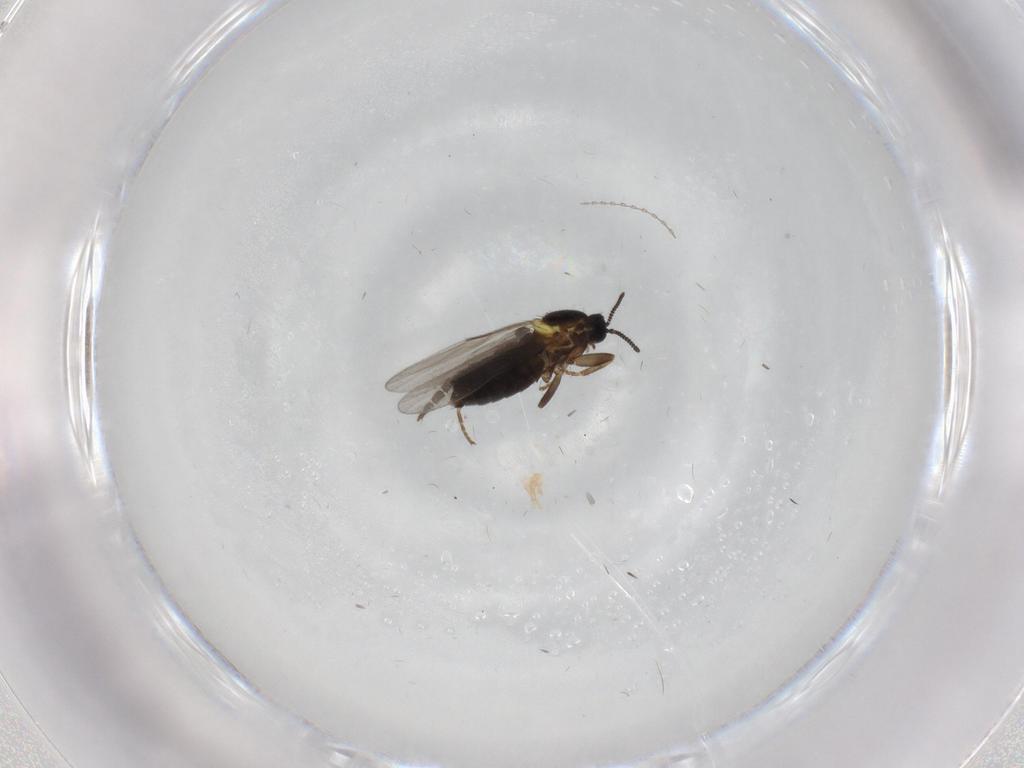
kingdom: Animalia
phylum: Arthropoda
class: Insecta
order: Diptera
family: Scatopsidae
